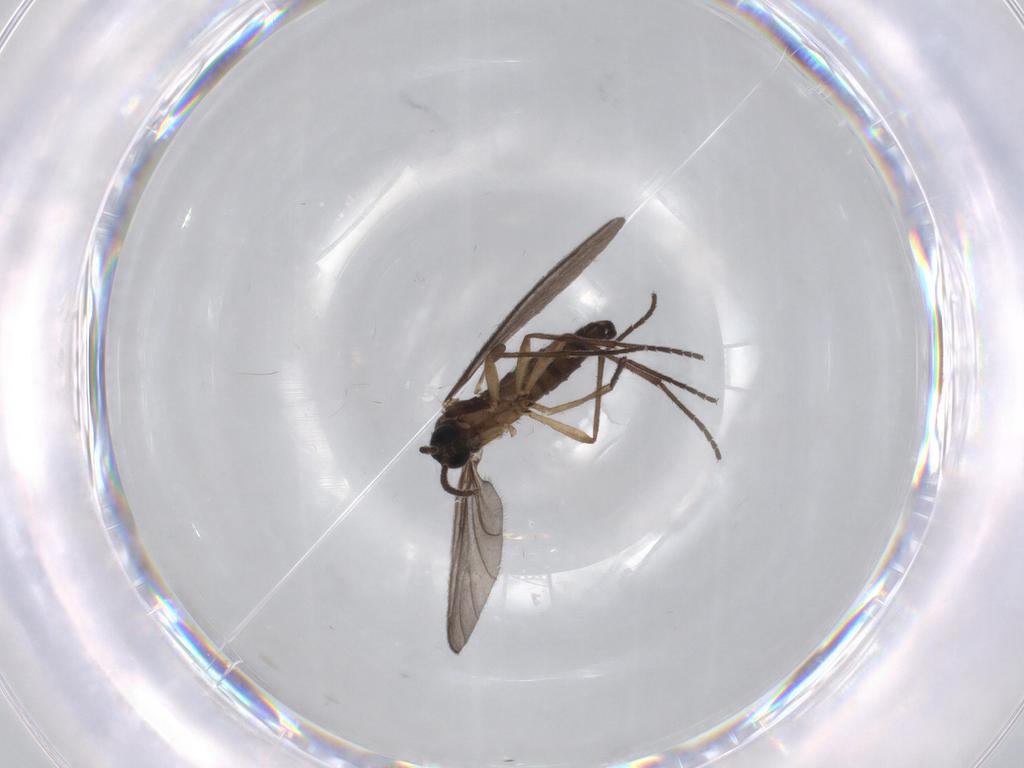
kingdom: Animalia
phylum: Arthropoda
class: Insecta
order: Diptera
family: Sciaridae
